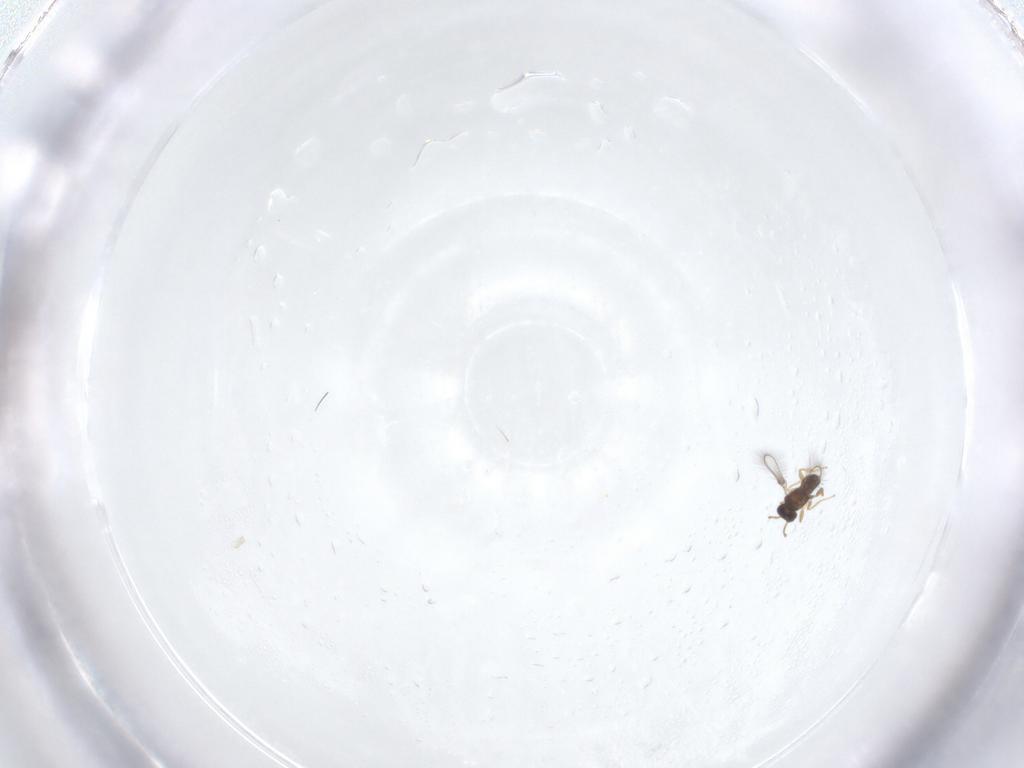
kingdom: Animalia
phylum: Arthropoda
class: Insecta
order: Hymenoptera
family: Mymaridae
